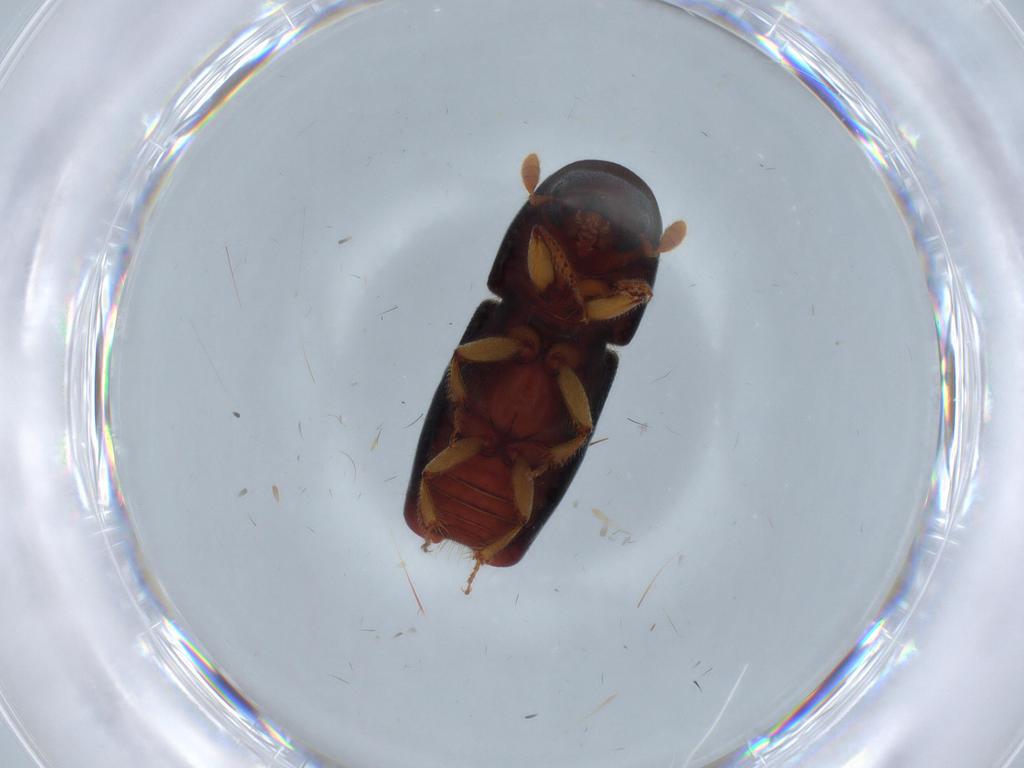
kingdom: Animalia
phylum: Arthropoda
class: Insecta
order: Coleoptera
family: Curculionidae
